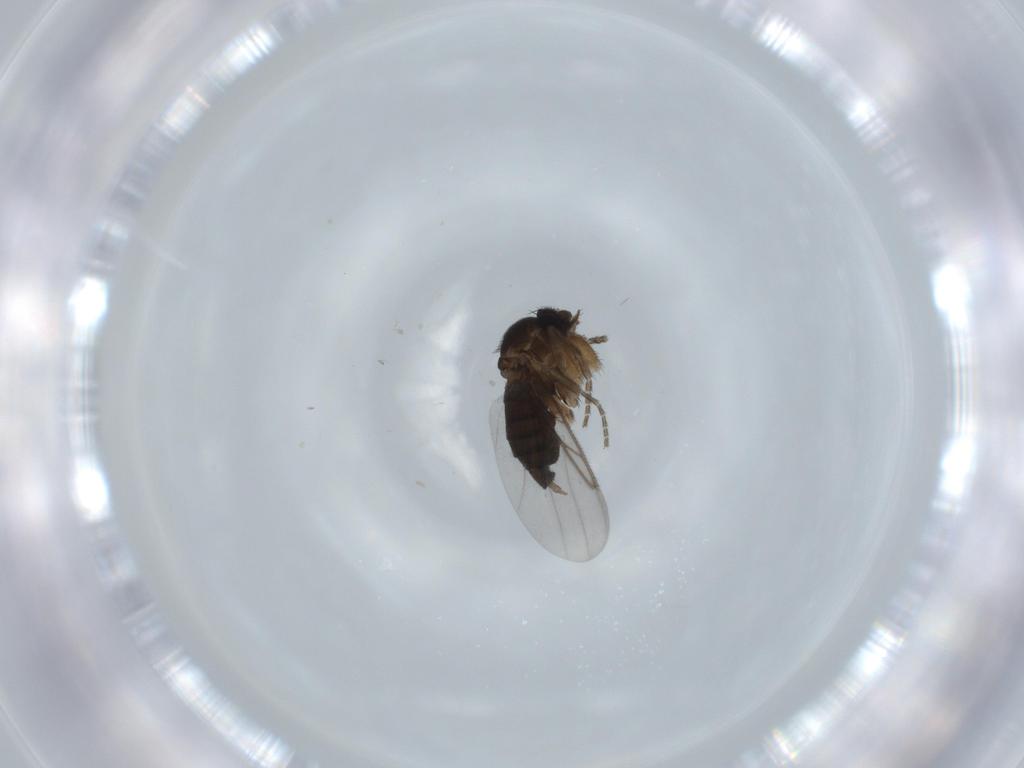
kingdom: Animalia
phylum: Arthropoda
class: Insecta
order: Diptera
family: Phoridae
